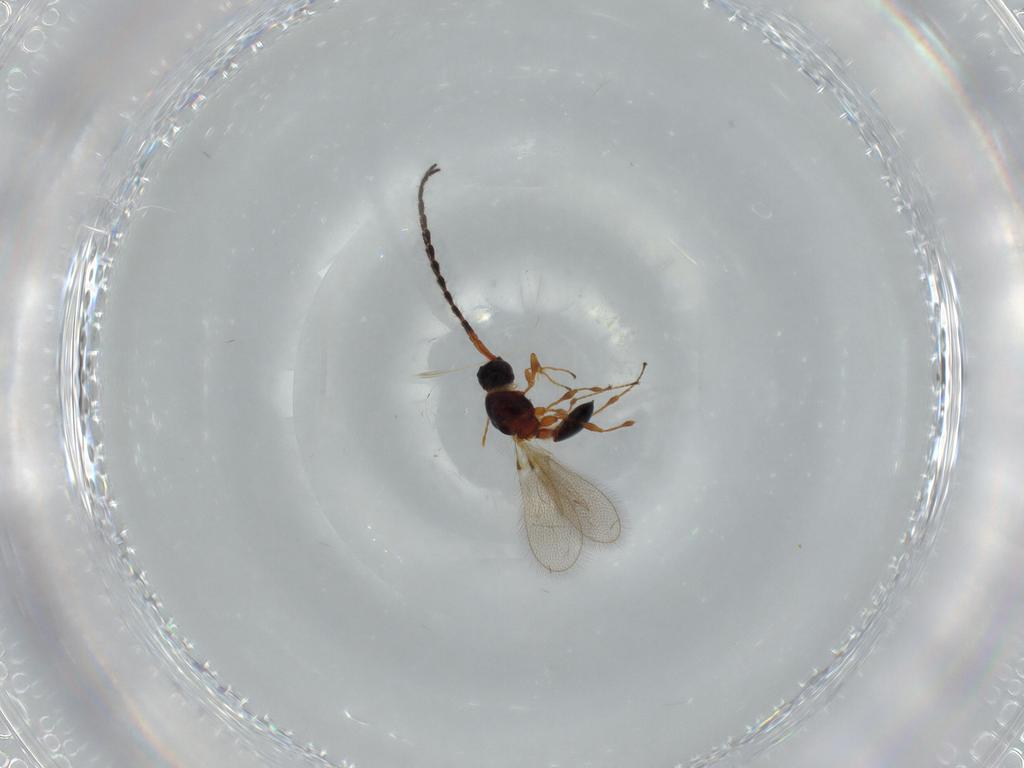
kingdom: Animalia
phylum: Arthropoda
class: Insecta
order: Hymenoptera
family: Diapriidae
